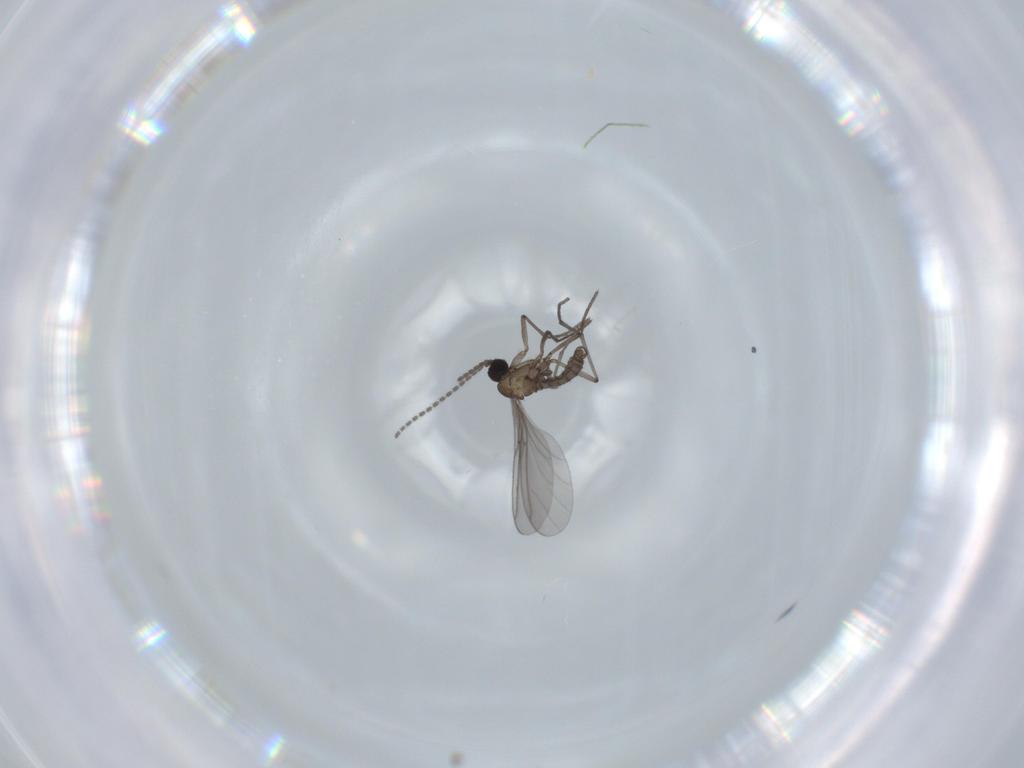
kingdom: Animalia
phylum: Arthropoda
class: Insecta
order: Diptera
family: Sciaridae
